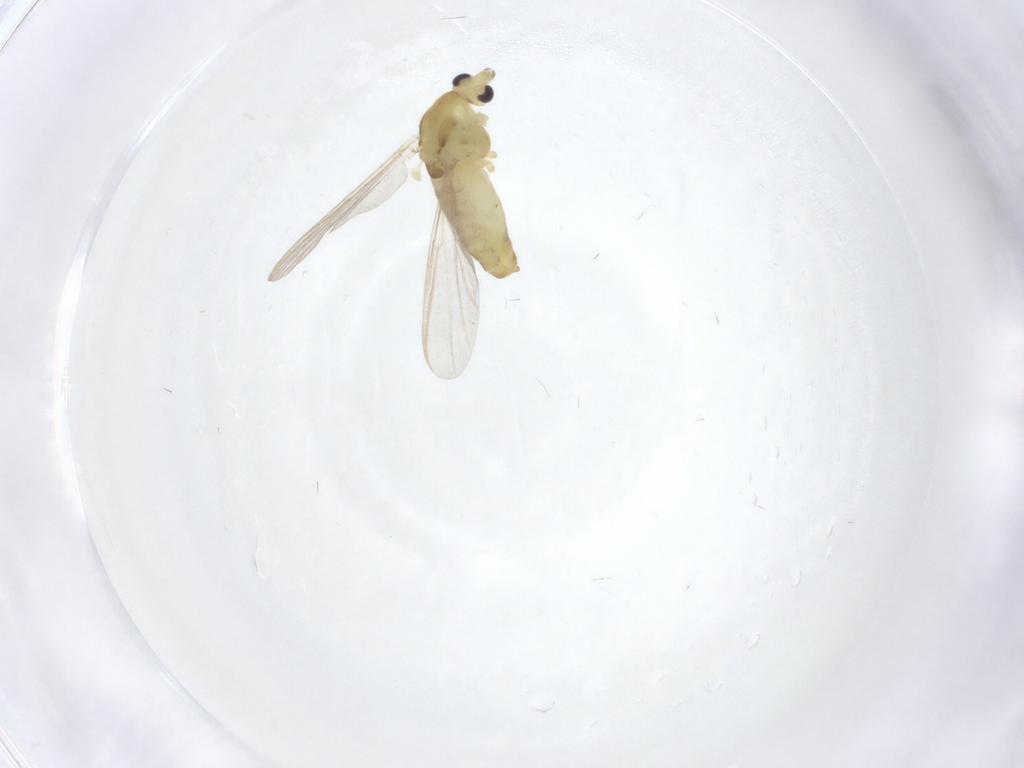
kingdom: Animalia
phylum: Arthropoda
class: Insecta
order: Diptera
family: Chironomidae
